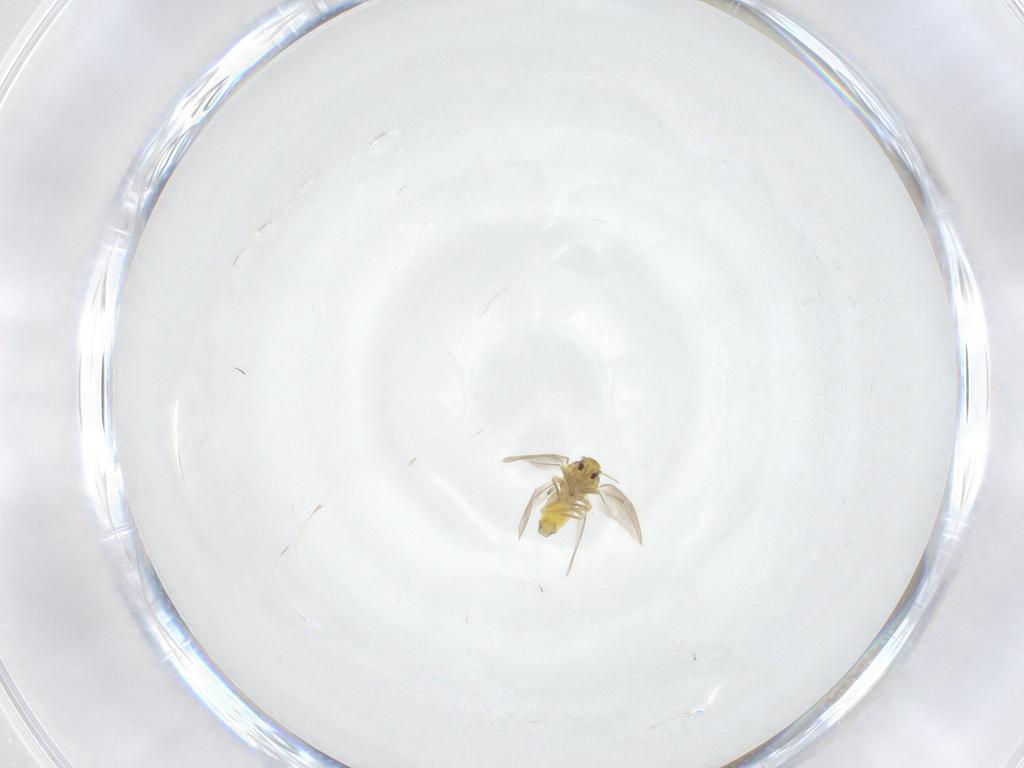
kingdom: Animalia
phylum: Arthropoda
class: Insecta
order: Hemiptera
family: Aleyrodidae
